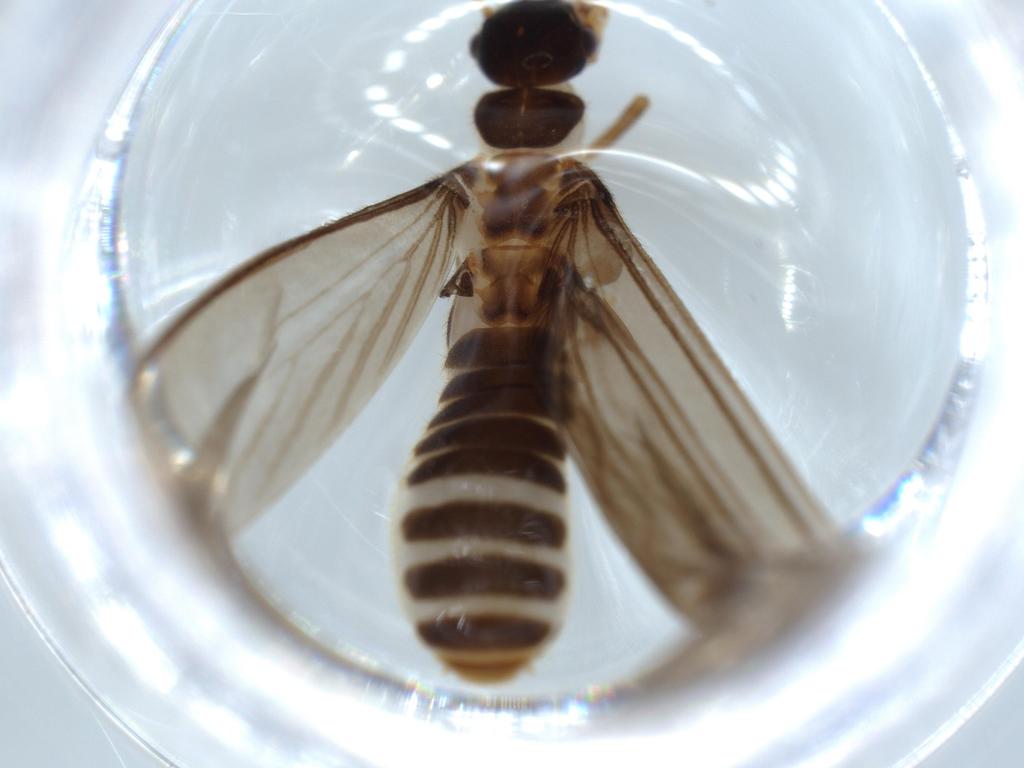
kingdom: Animalia
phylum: Arthropoda
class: Insecta
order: Blattodea
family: Termitidae
